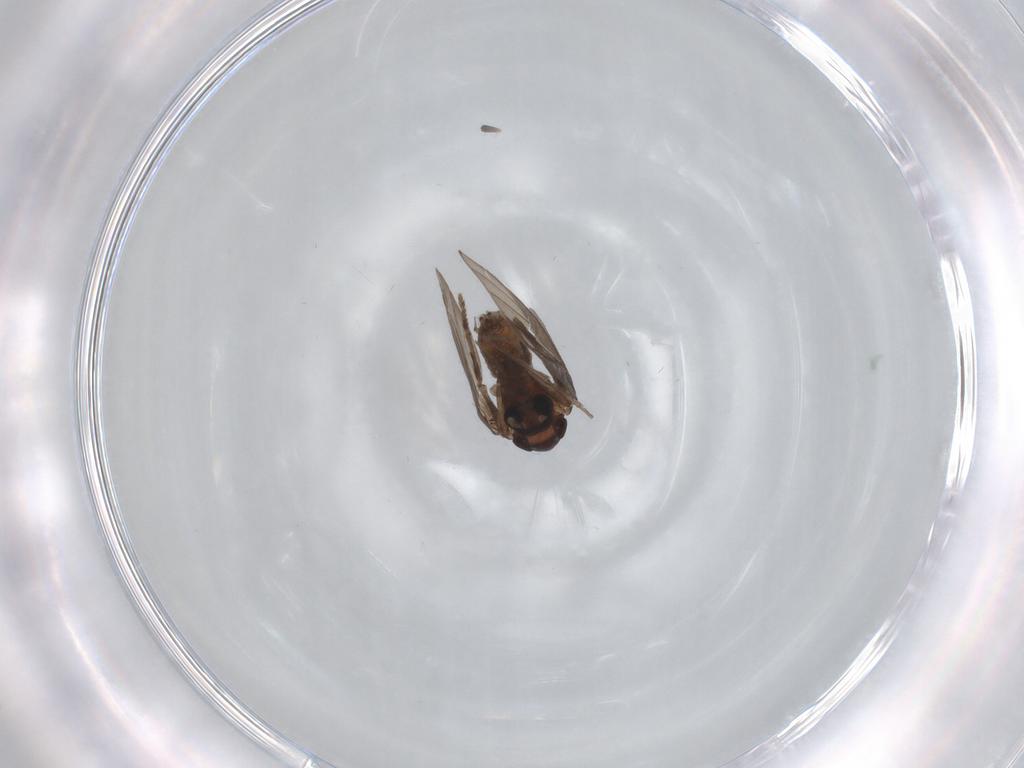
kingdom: Animalia
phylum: Arthropoda
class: Insecta
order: Diptera
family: Psychodidae
